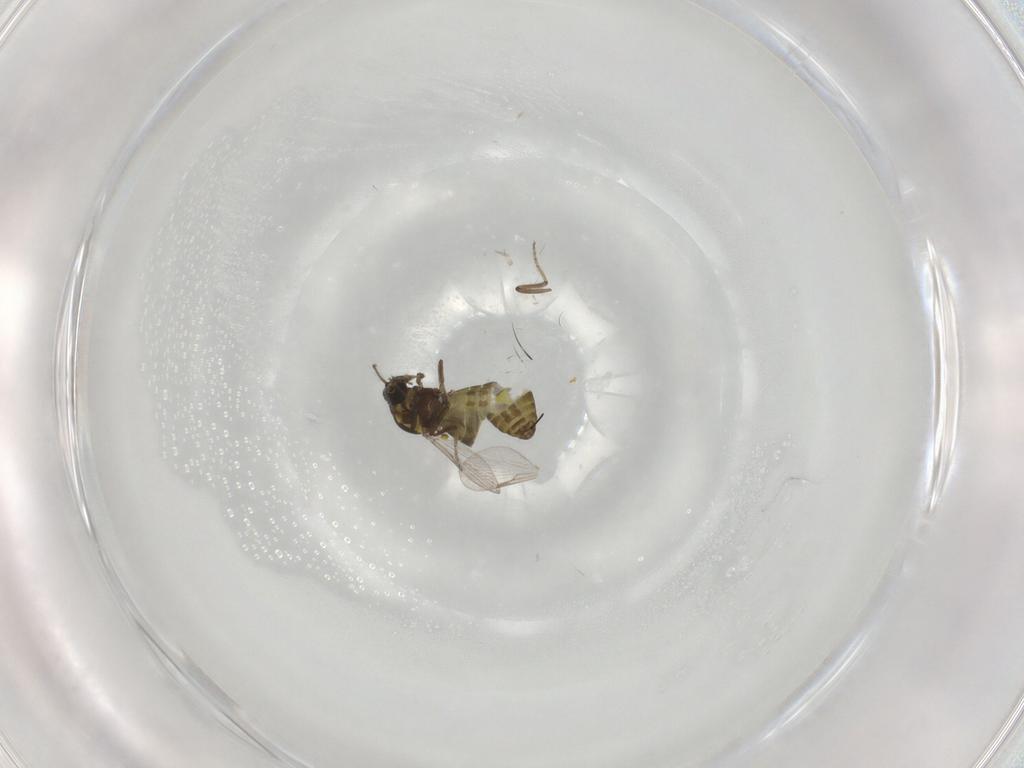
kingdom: Animalia
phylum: Arthropoda
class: Insecta
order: Diptera
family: Ceratopogonidae
